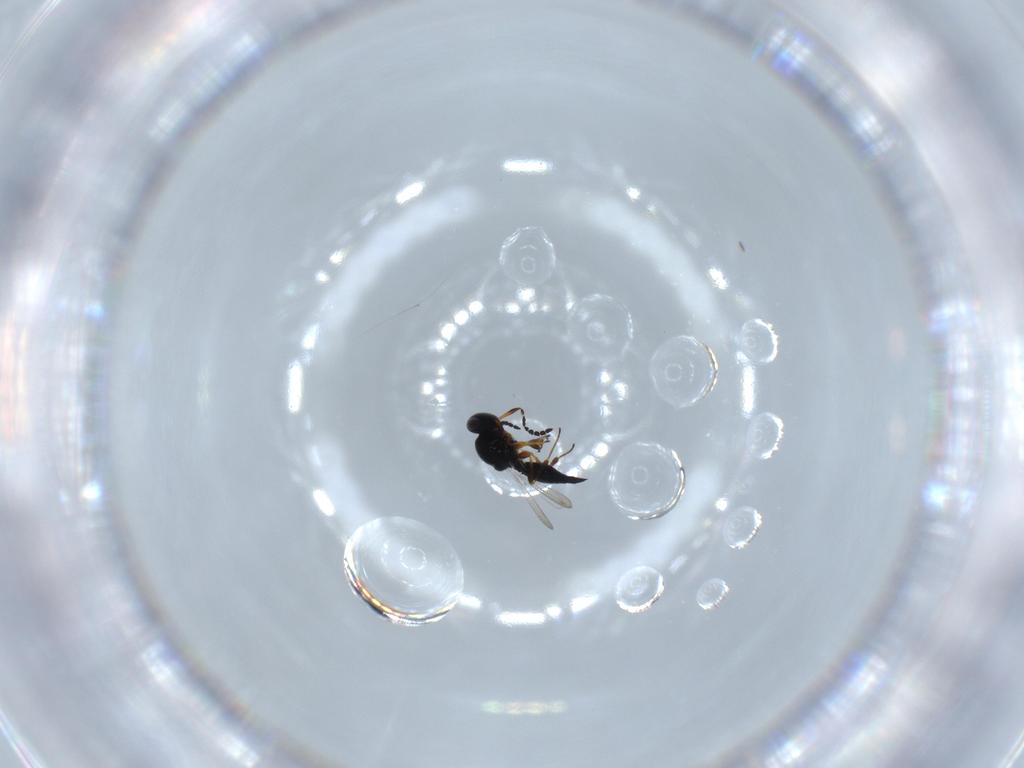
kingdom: Animalia
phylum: Arthropoda
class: Insecta
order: Hymenoptera
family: Platygastridae
